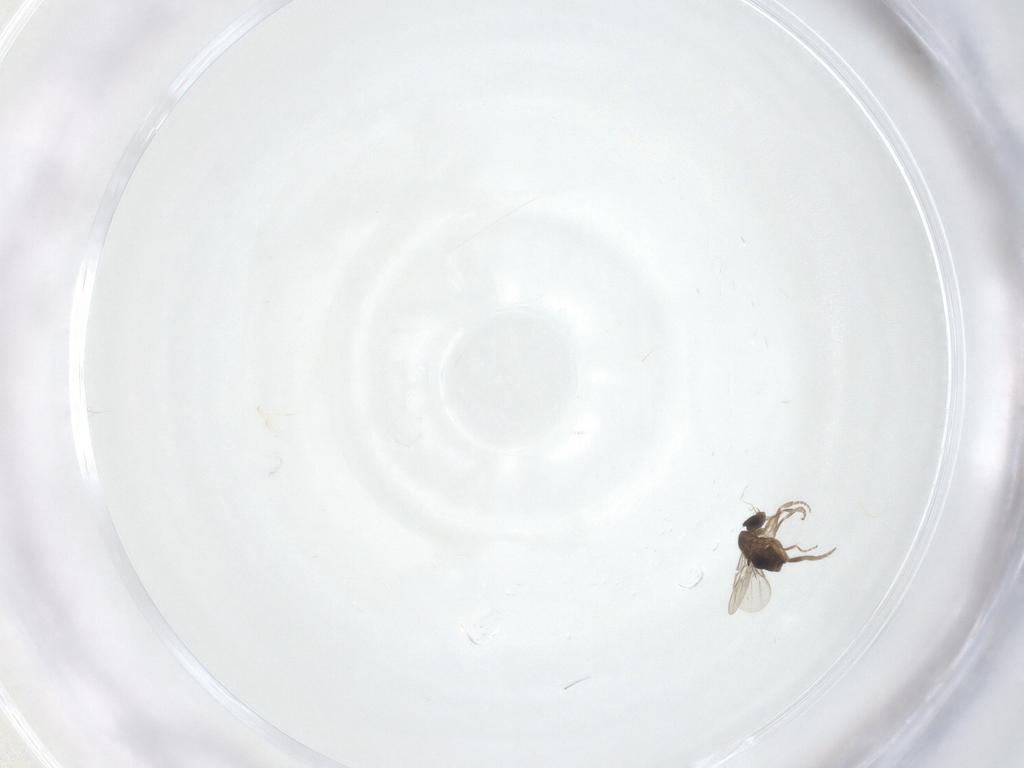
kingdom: Animalia
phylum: Arthropoda
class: Insecta
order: Diptera
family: Phoridae
